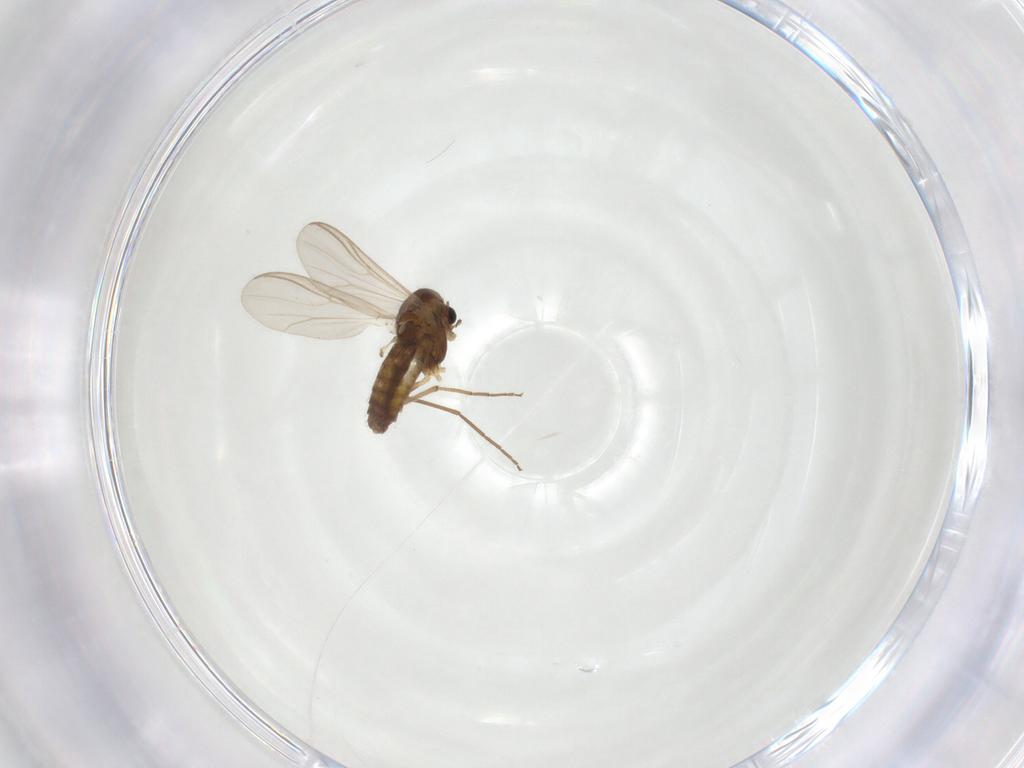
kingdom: Animalia
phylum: Arthropoda
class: Insecta
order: Diptera
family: Chironomidae
